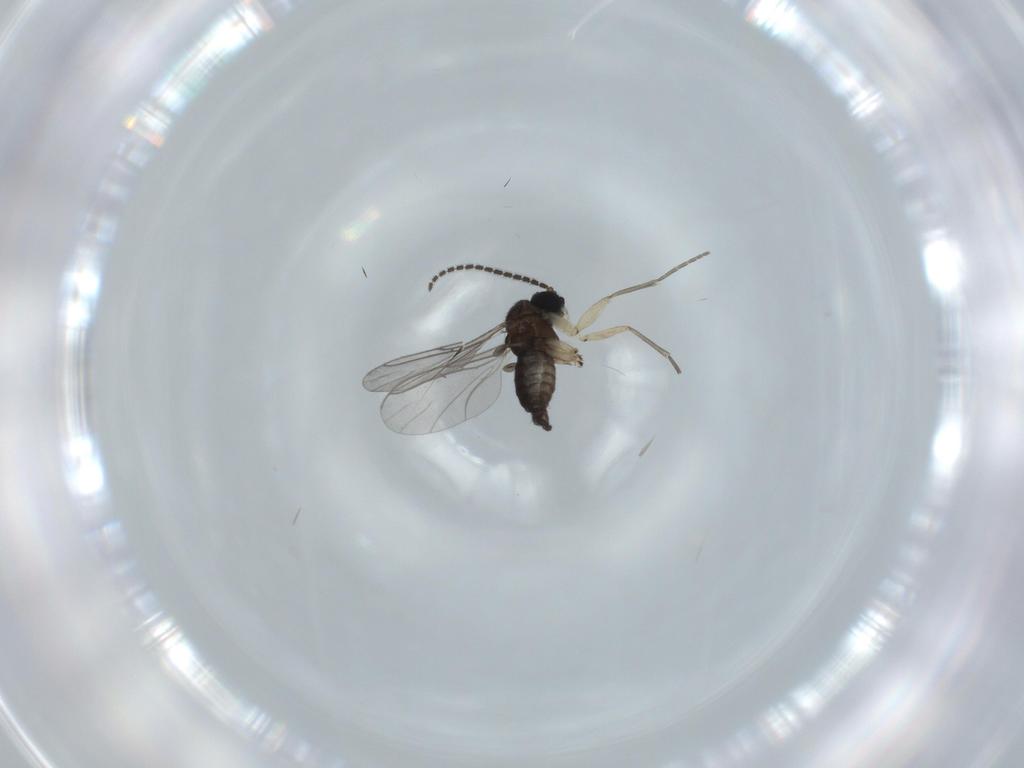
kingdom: Animalia
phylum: Arthropoda
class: Insecta
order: Diptera
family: Sciaridae
